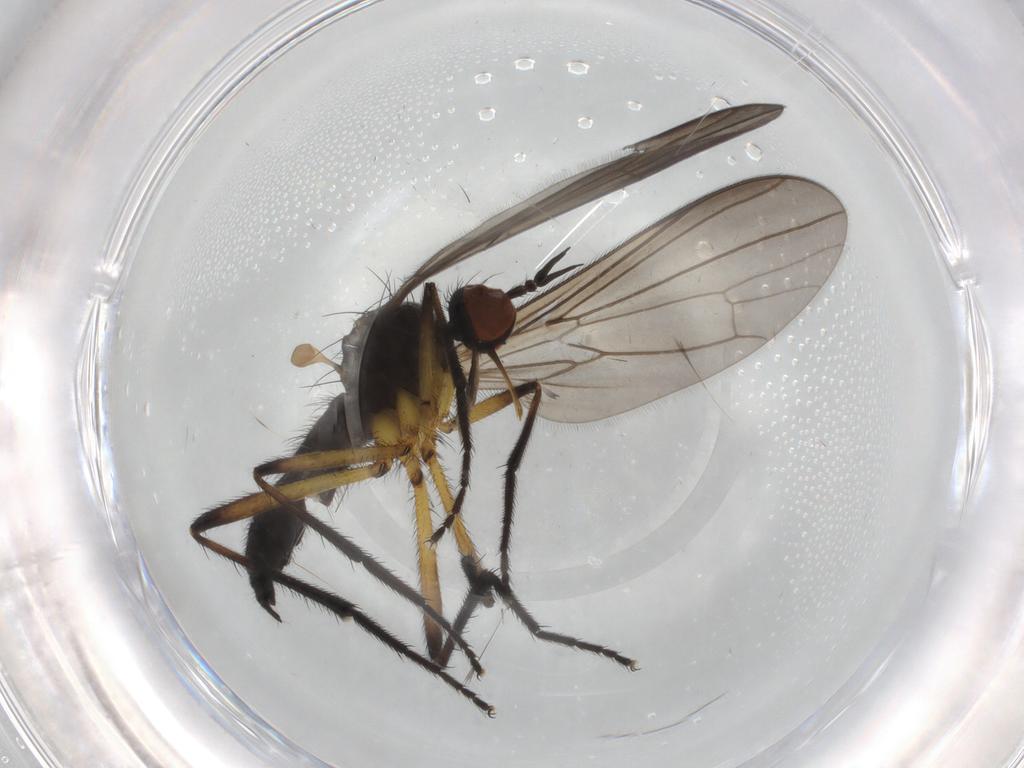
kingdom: Animalia
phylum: Arthropoda
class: Insecta
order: Diptera
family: Empididae
